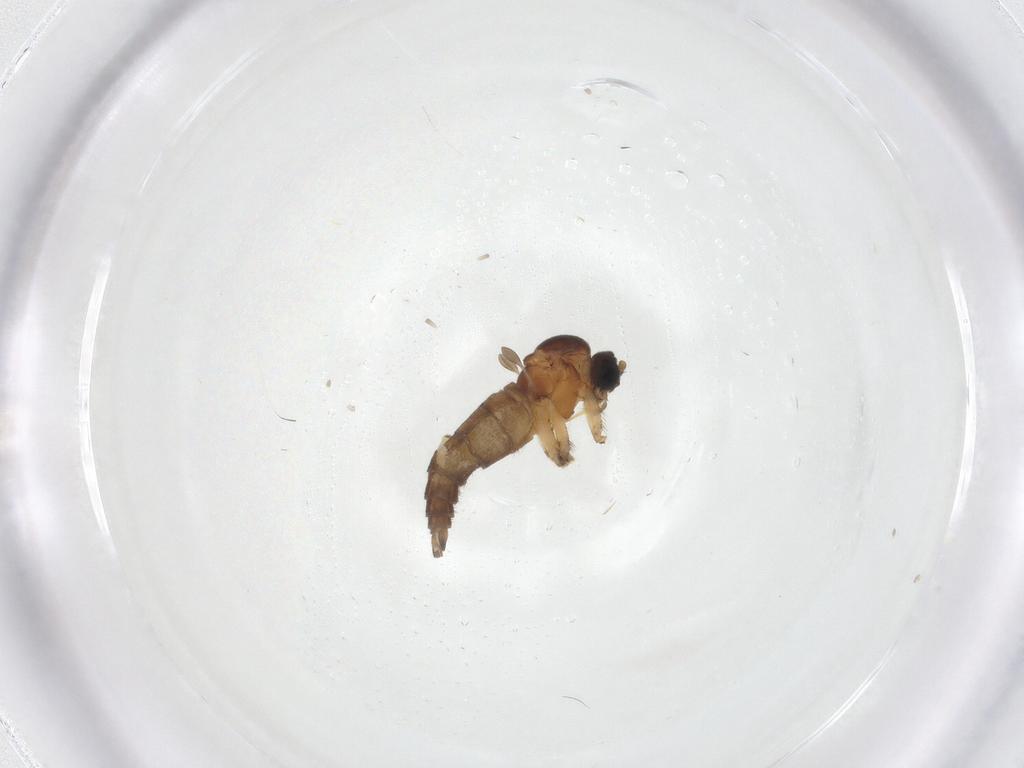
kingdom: Animalia
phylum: Arthropoda
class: Insecta
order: Diptera
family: Sciaridae
